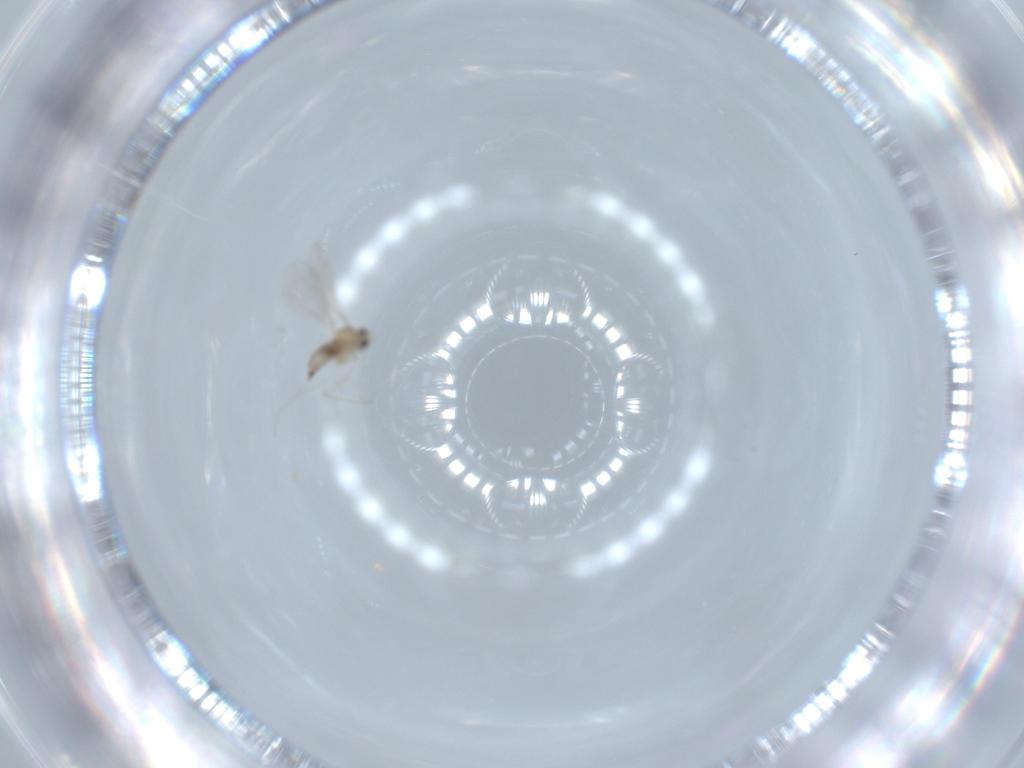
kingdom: Animalia
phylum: Arthropoda
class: Insecta
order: Diptera
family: Cecidomyiidae
